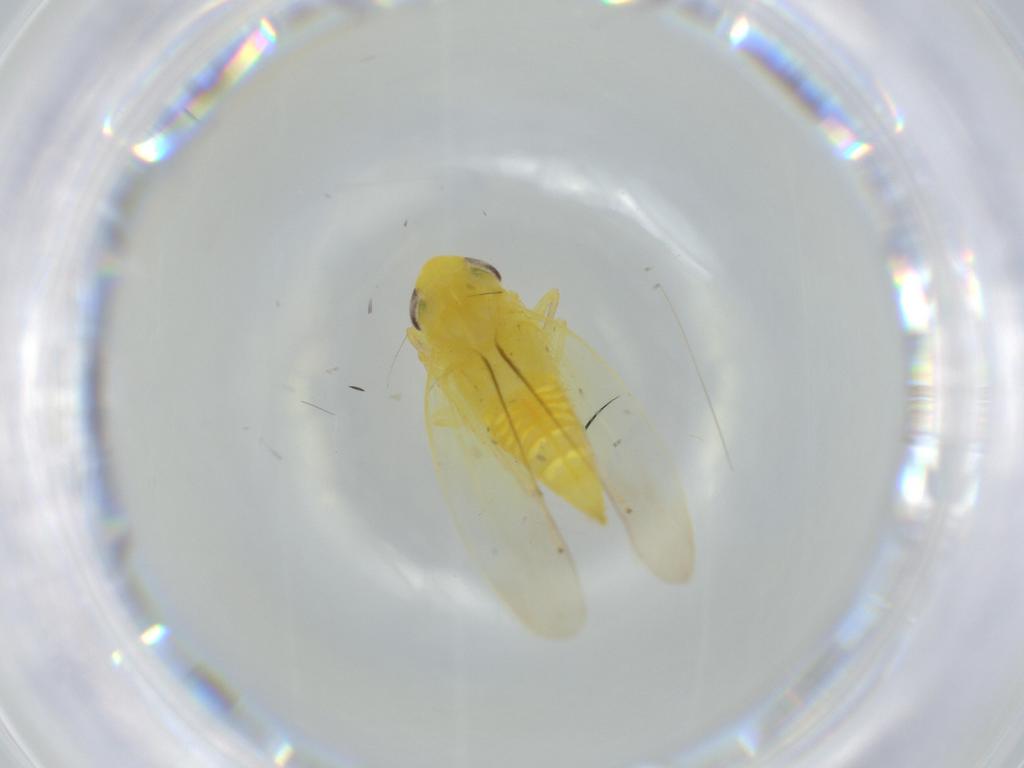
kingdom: Animalia
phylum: Arthropoda
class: Insecta
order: Hemiptera
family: Cicadellidae
